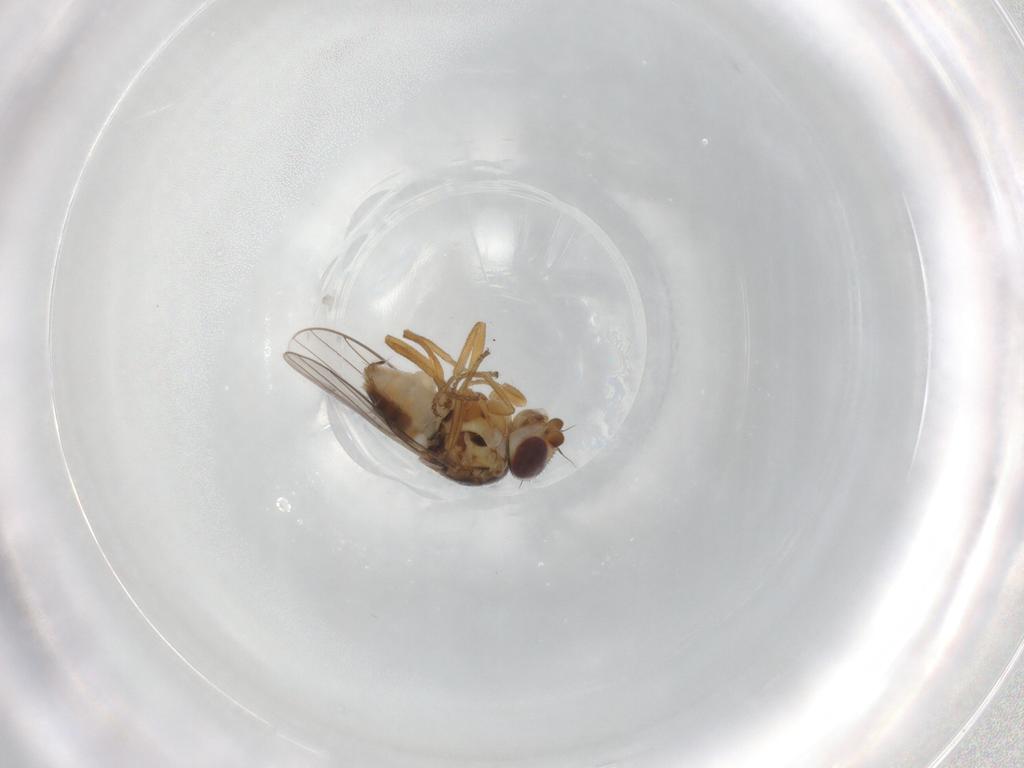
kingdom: Animalia
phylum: Arthropoda
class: Insecta
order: Diptera
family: Chloropidae
